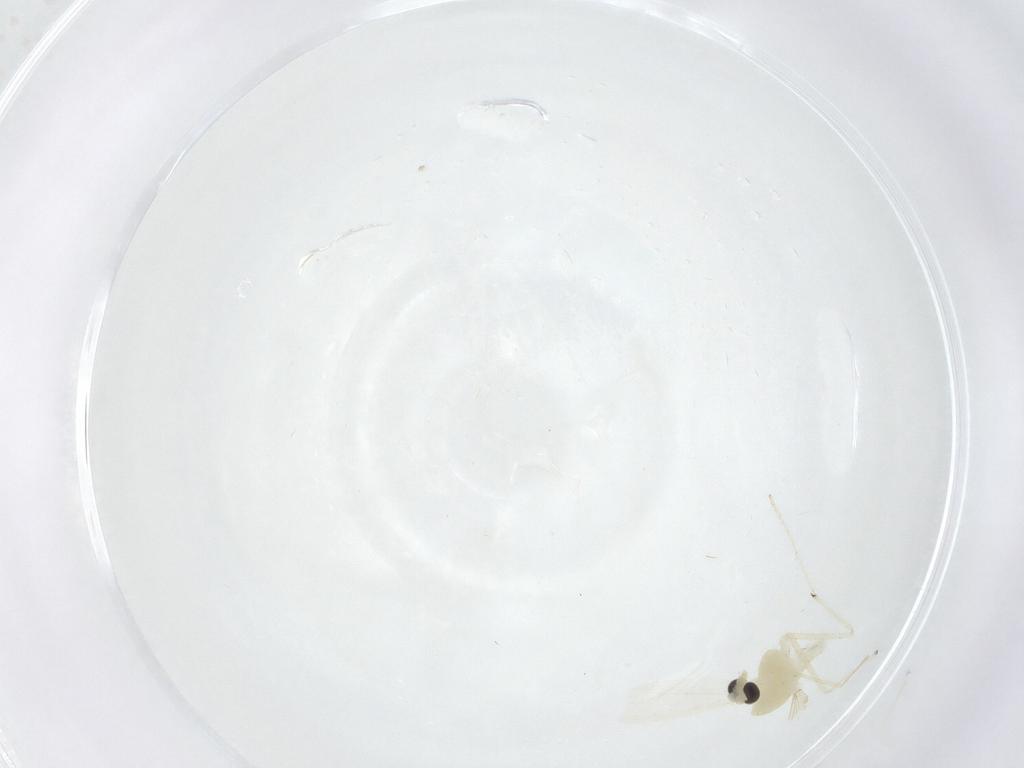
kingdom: Animalia
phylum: Arthropoda
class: Insecta
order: Diptera
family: Chironomidae
